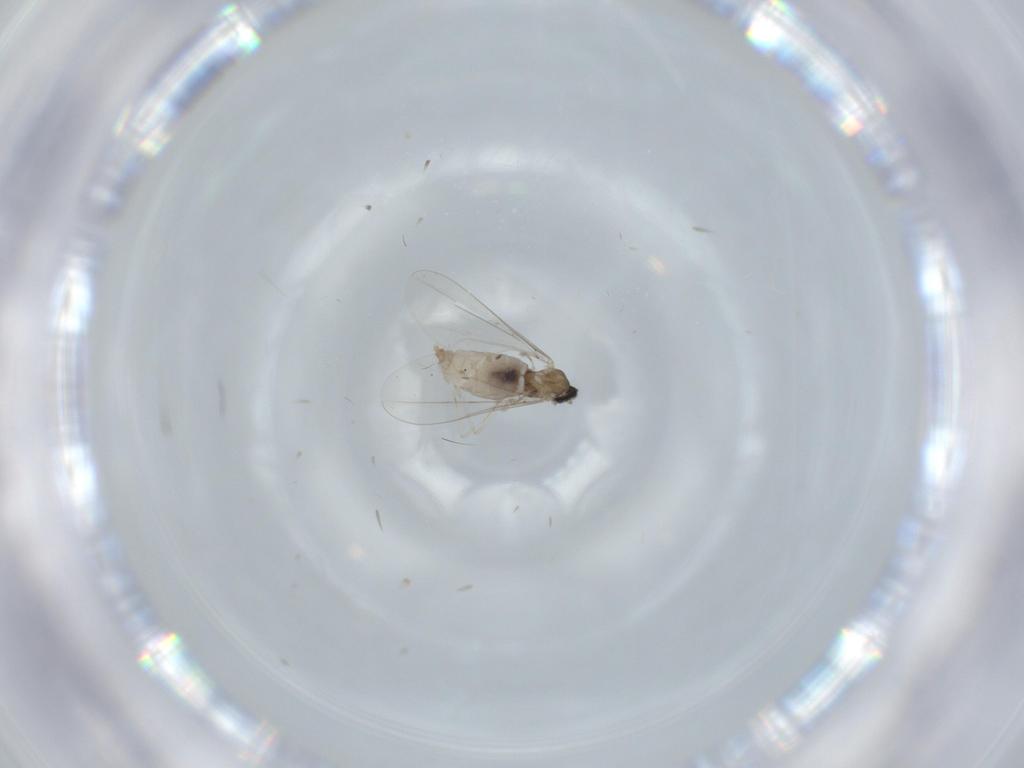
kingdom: Animalia
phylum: Arthropoda
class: Insecta
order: Diptera
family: Cecidomyiidae
